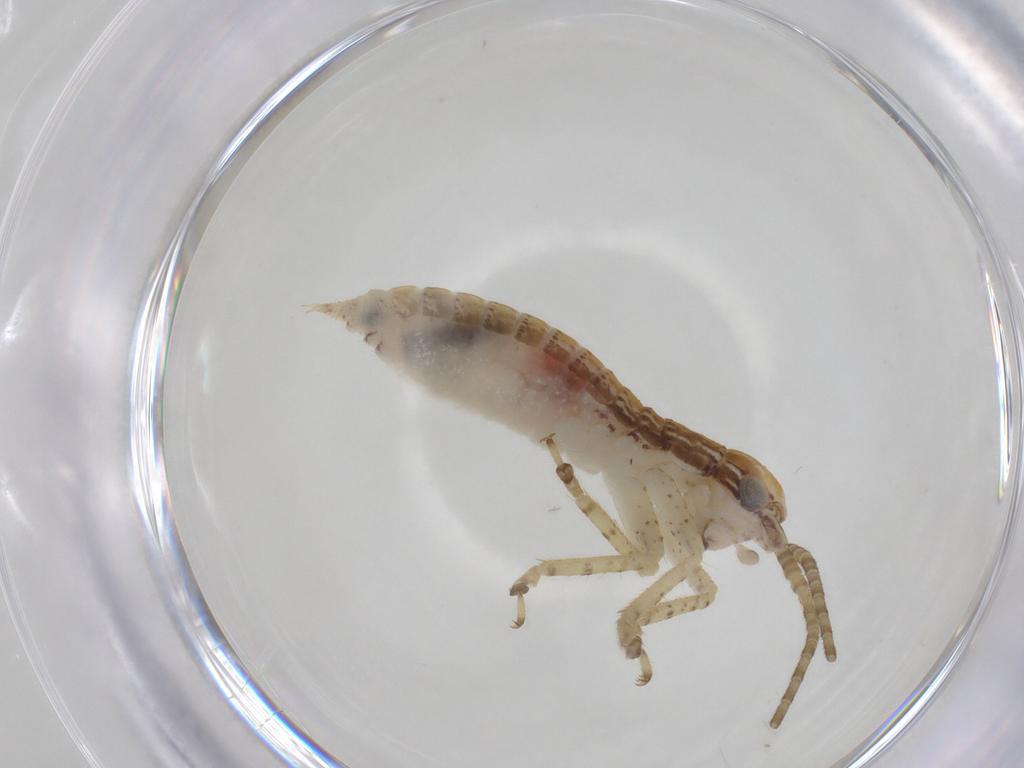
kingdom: Animalia
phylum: Arthropoda
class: Insecta
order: Orthoptera
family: Gryllidae
